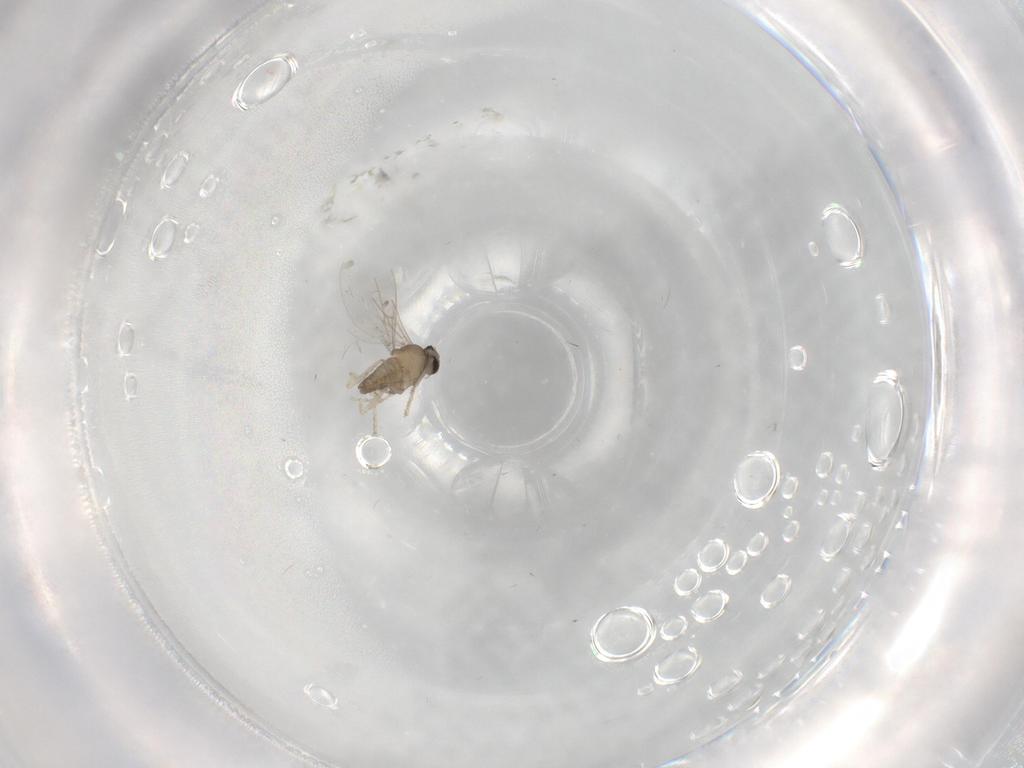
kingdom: Animalia
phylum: Arthropoda
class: Insecta
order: Diptera
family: Cecidomyiidae
